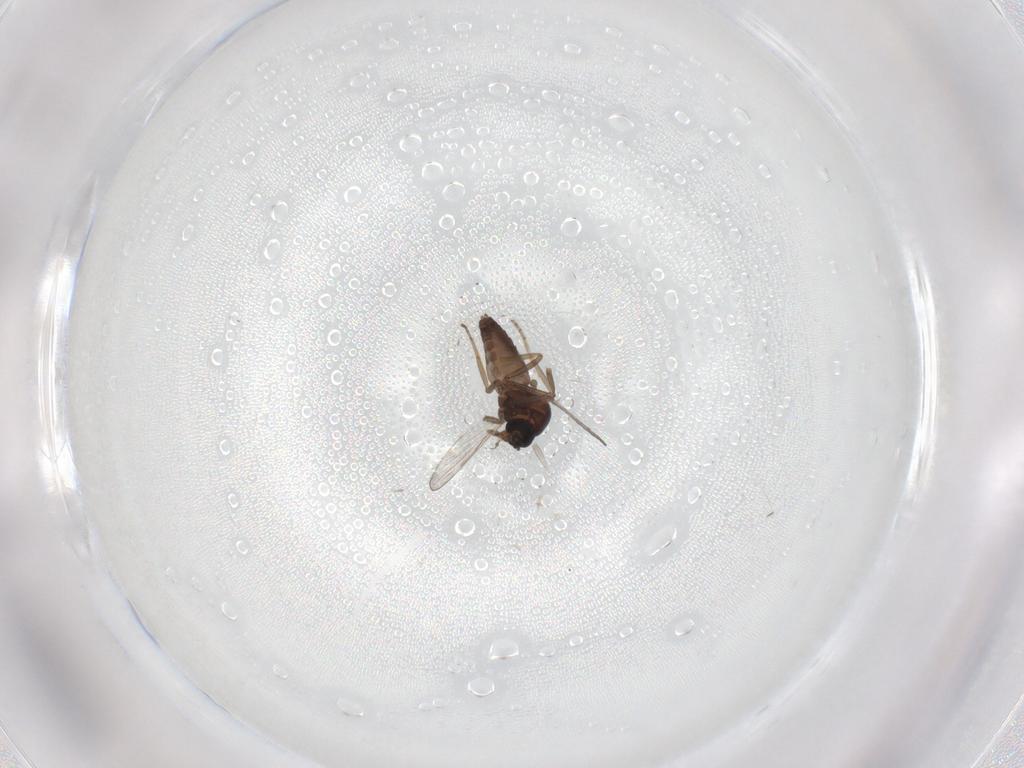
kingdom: Animalia
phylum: Arthropoda
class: Insecta
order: Diptera
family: Ceratopogonidae
